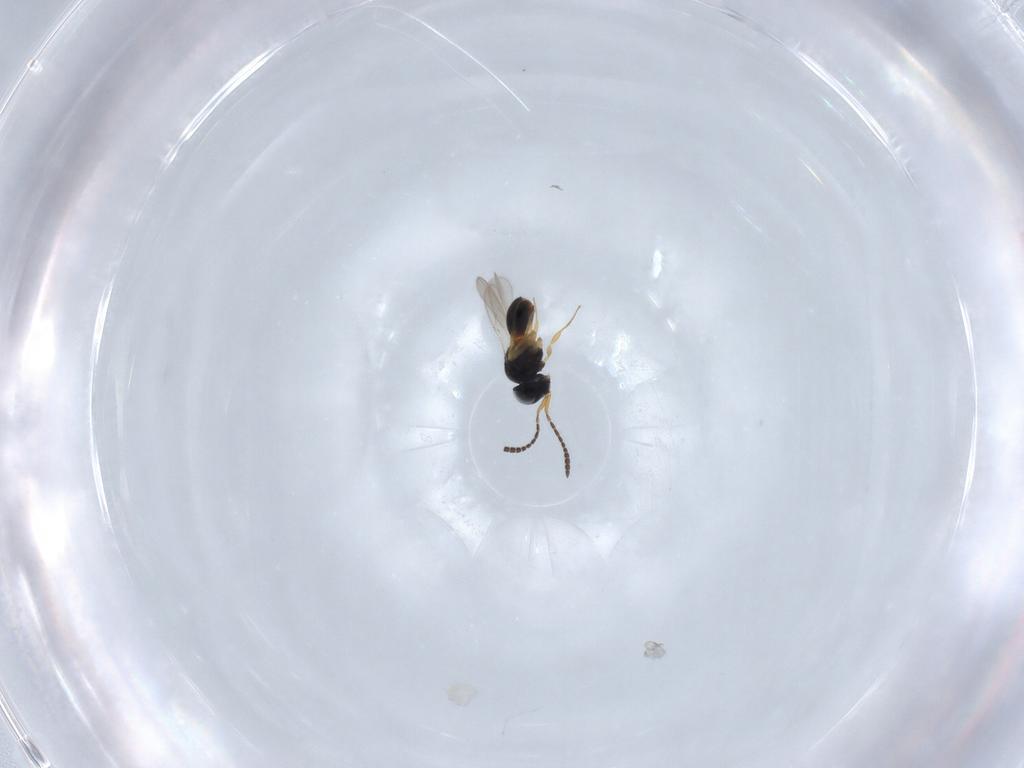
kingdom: Animalia
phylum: Arthropoda
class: Insecta
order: Hymenoptera
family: Scelionidae
